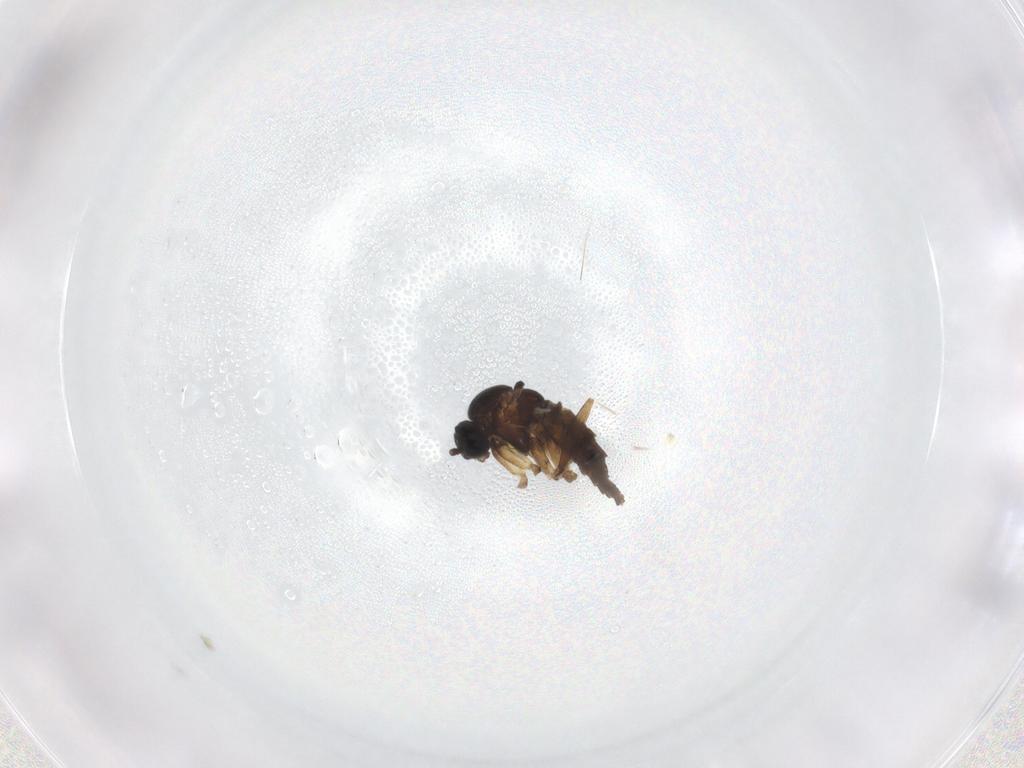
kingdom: Animalia
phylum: Arthropoda
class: Insecta
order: Diptera
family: Sciaridae
